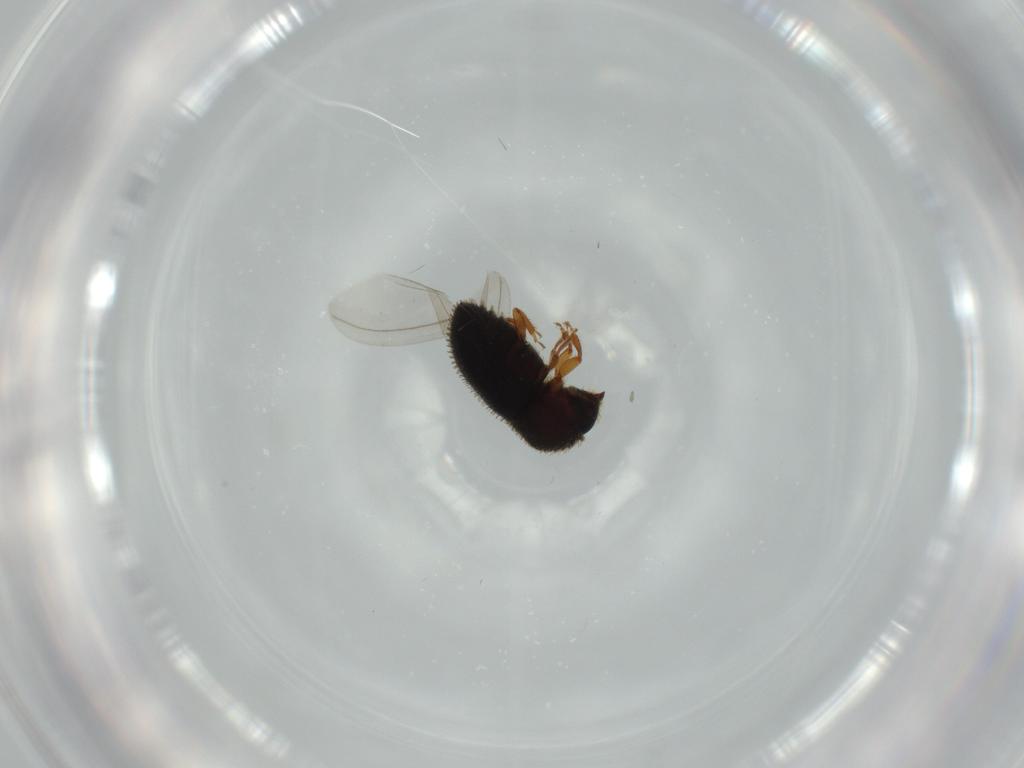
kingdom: Animalia
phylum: Arthropoda
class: Insecta
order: Coleoptera
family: Curculionidae
